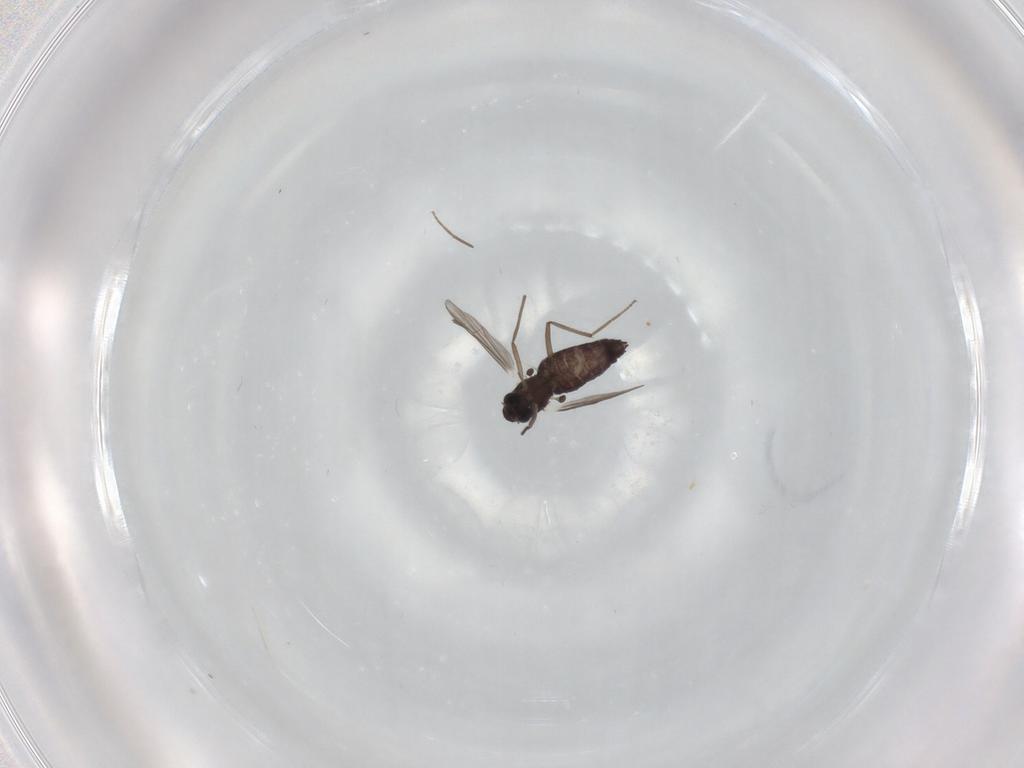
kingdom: Animalia
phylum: Arthropoda
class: Insecta
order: Diptera
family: Chironomidae
